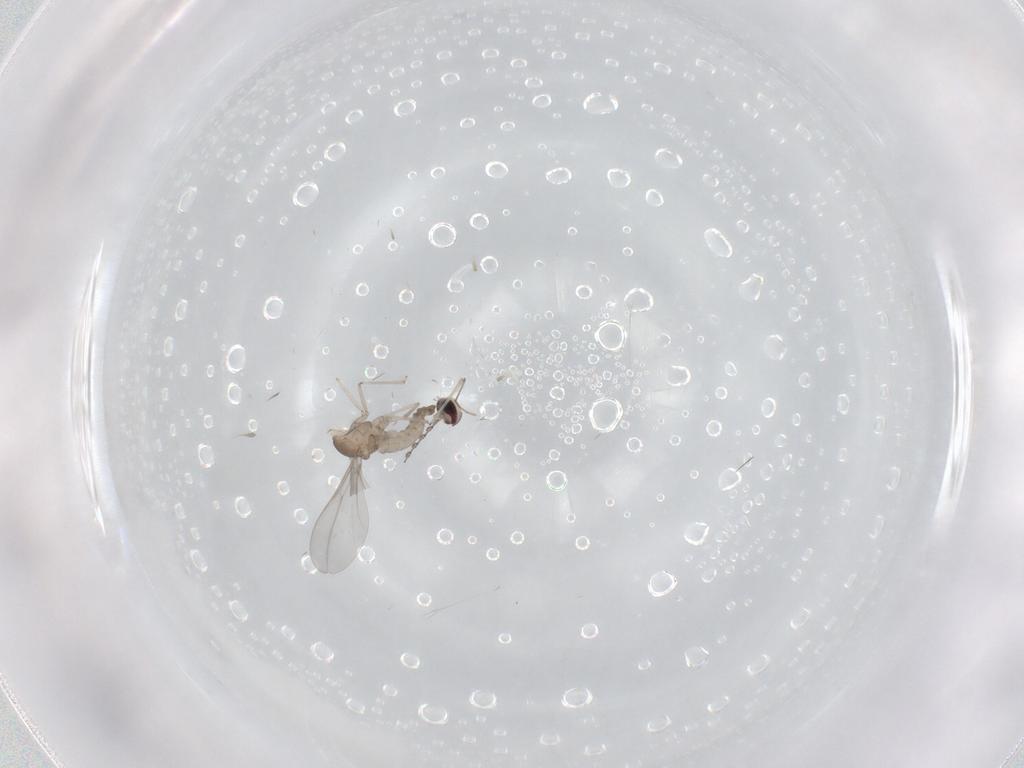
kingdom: Animalia
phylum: Arthropoda
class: Insecta
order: Diptera
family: Cecidomyiidae
